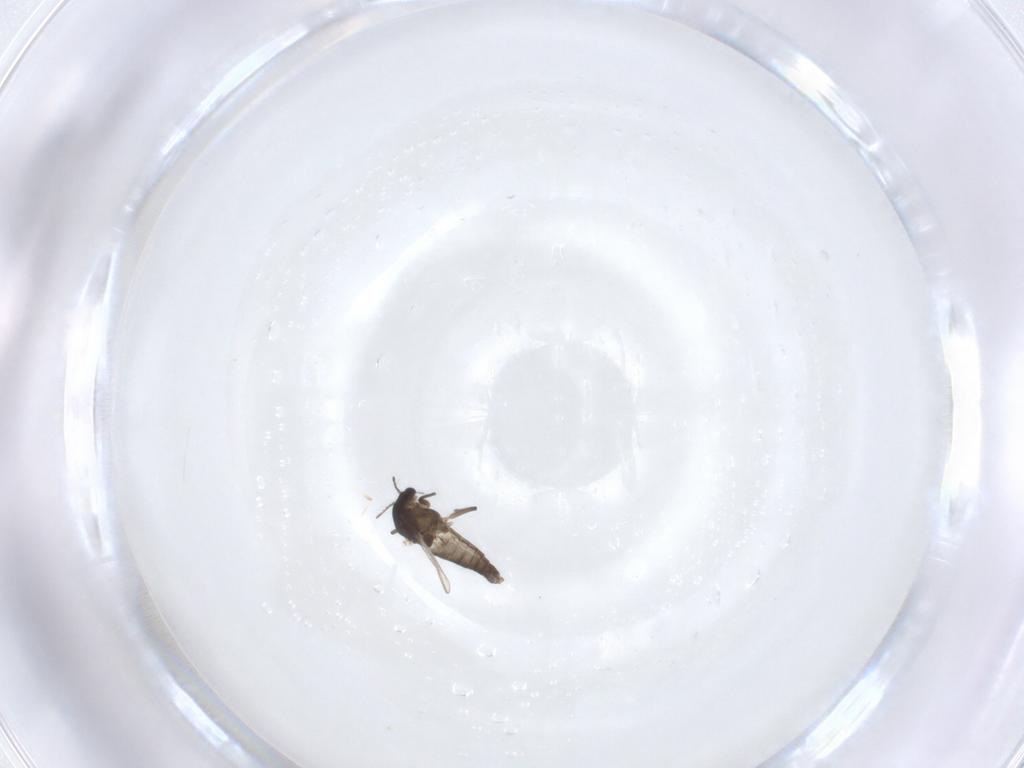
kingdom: Animalia
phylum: Arthropoda
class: Insecta
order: Diptera
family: Chironomidae
